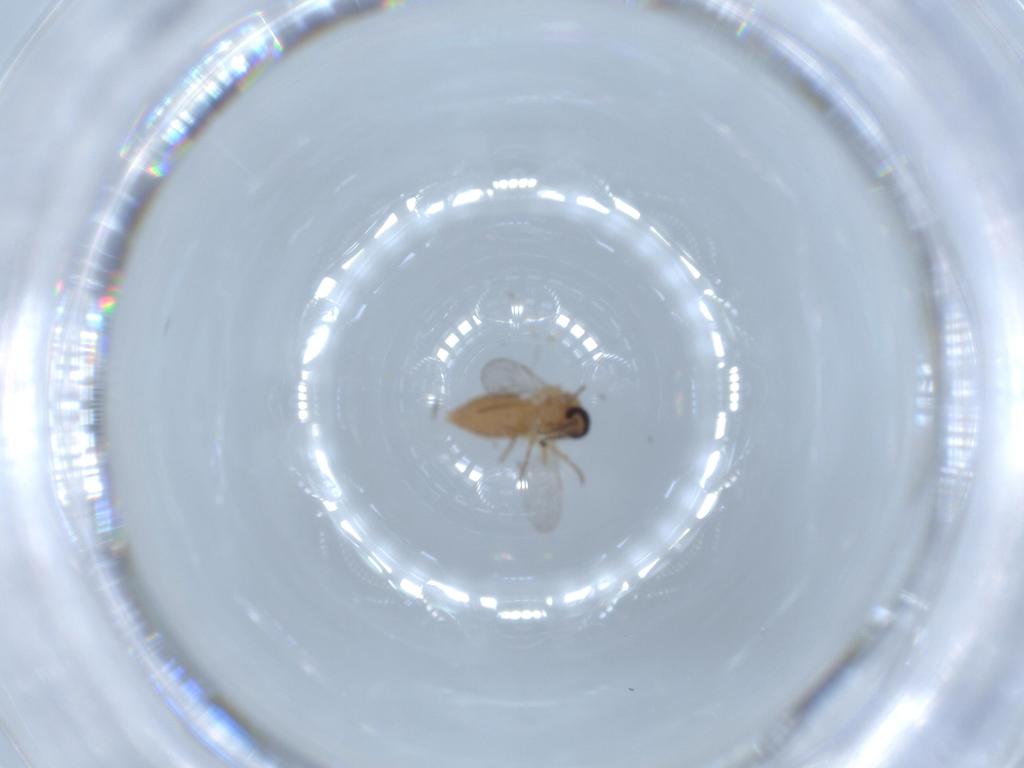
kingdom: Animalia
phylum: Arthropoda
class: Insecta
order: Diptera
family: Ceratopogonidae
